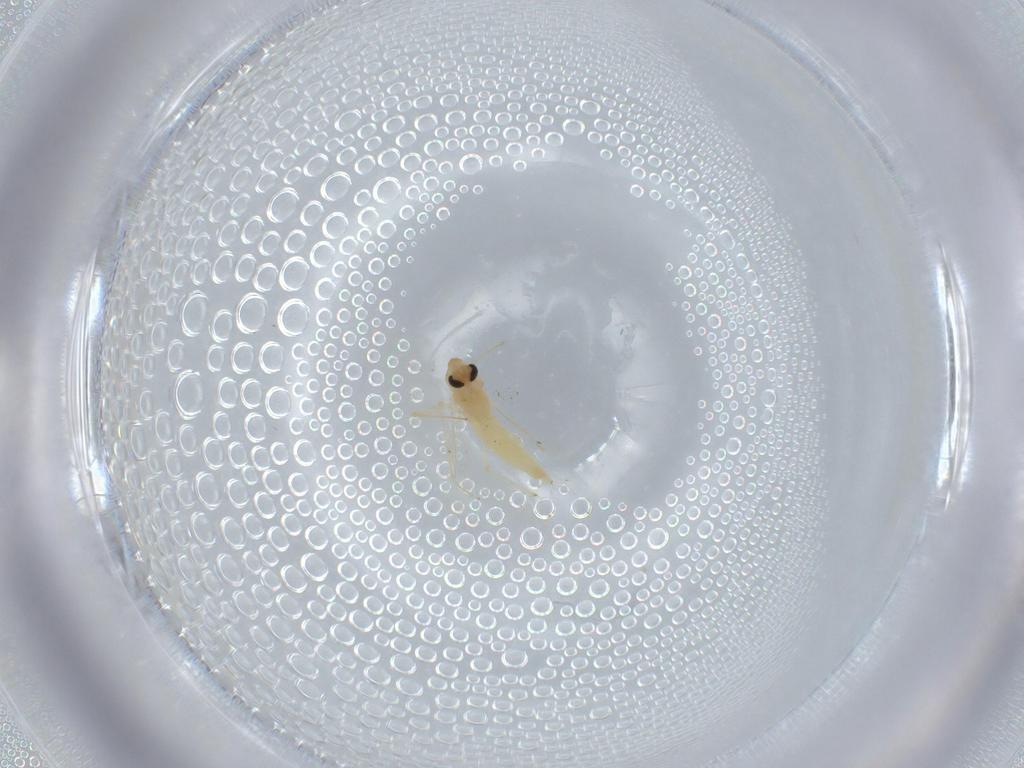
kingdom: Animalia
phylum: Arthropoda
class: Insecta
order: Diptera
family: Chironomidae
